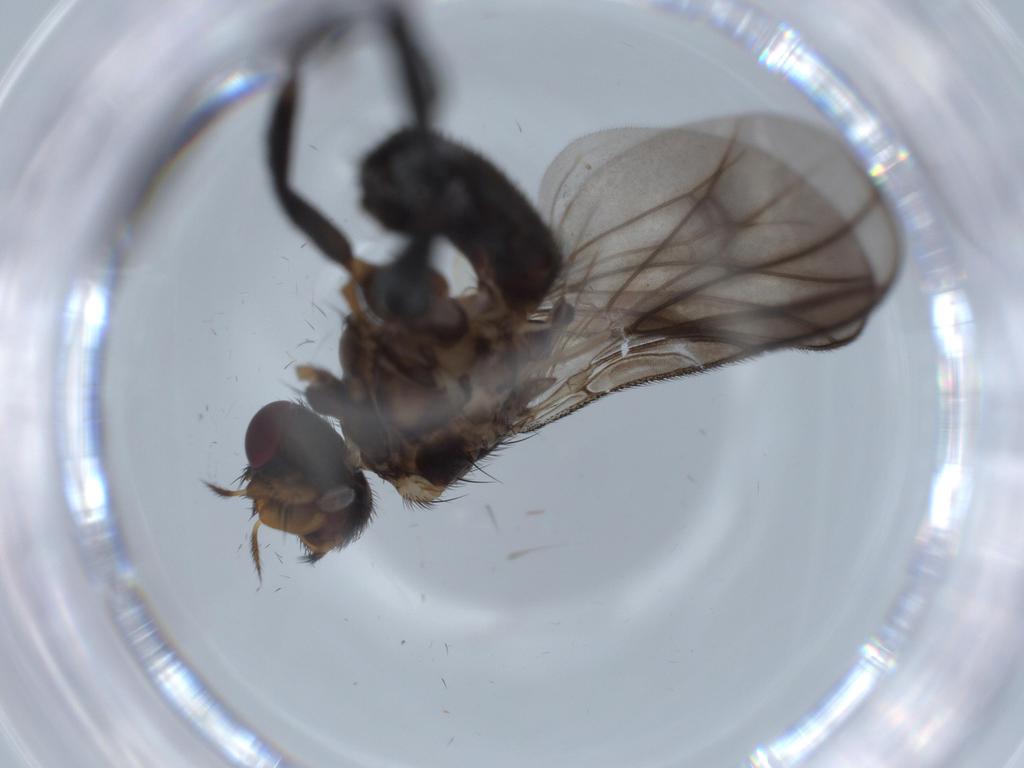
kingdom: Animalia
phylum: Arthropoda
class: Insecta
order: Diptera
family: Calliphoridae
